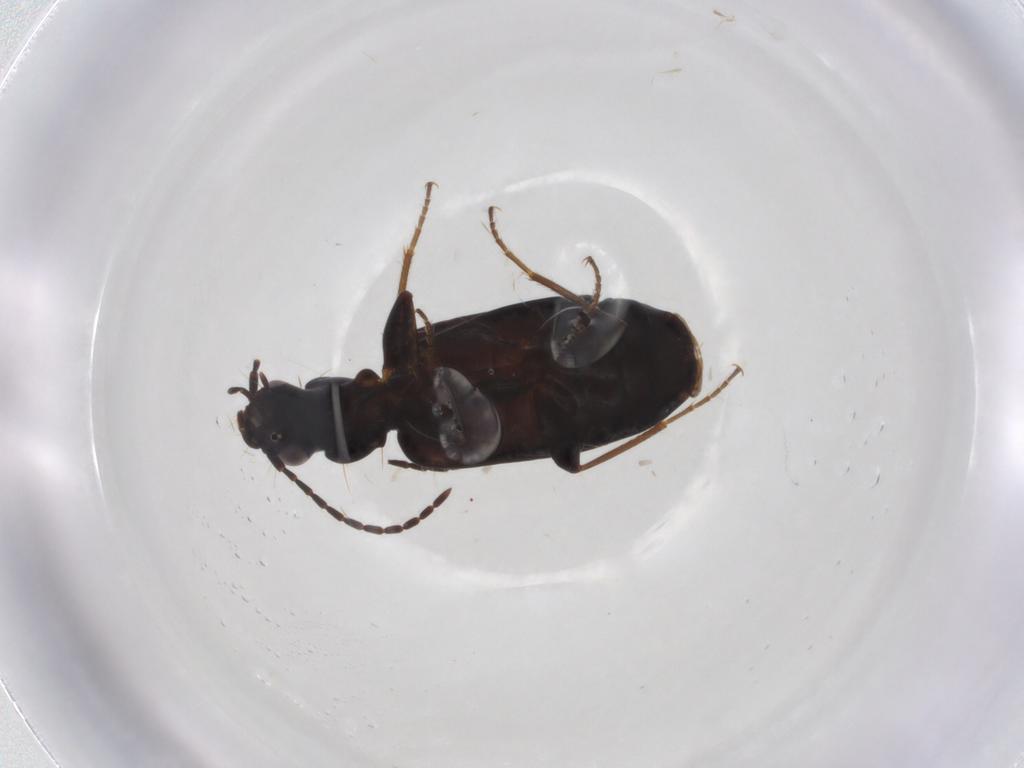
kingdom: Animalia
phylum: Arthropoda
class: Insecta
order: Coleoptera
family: Carabidae
